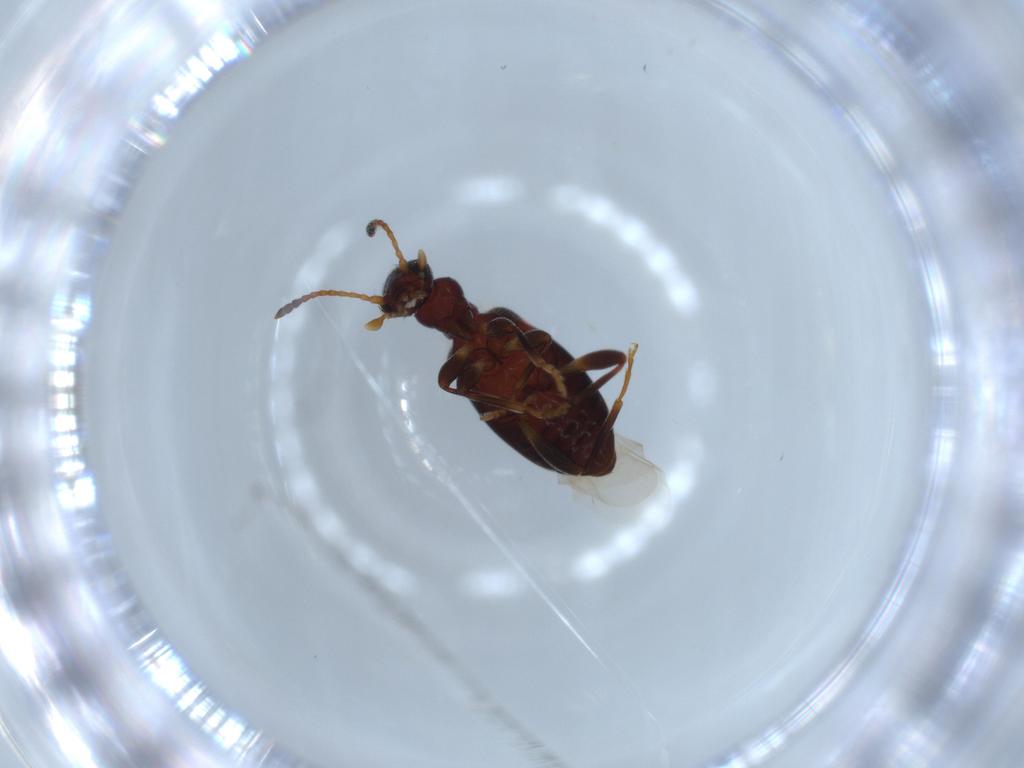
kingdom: Animalia
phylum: Arthropoda
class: Insecta
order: Coleoptera
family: Anthicidae
